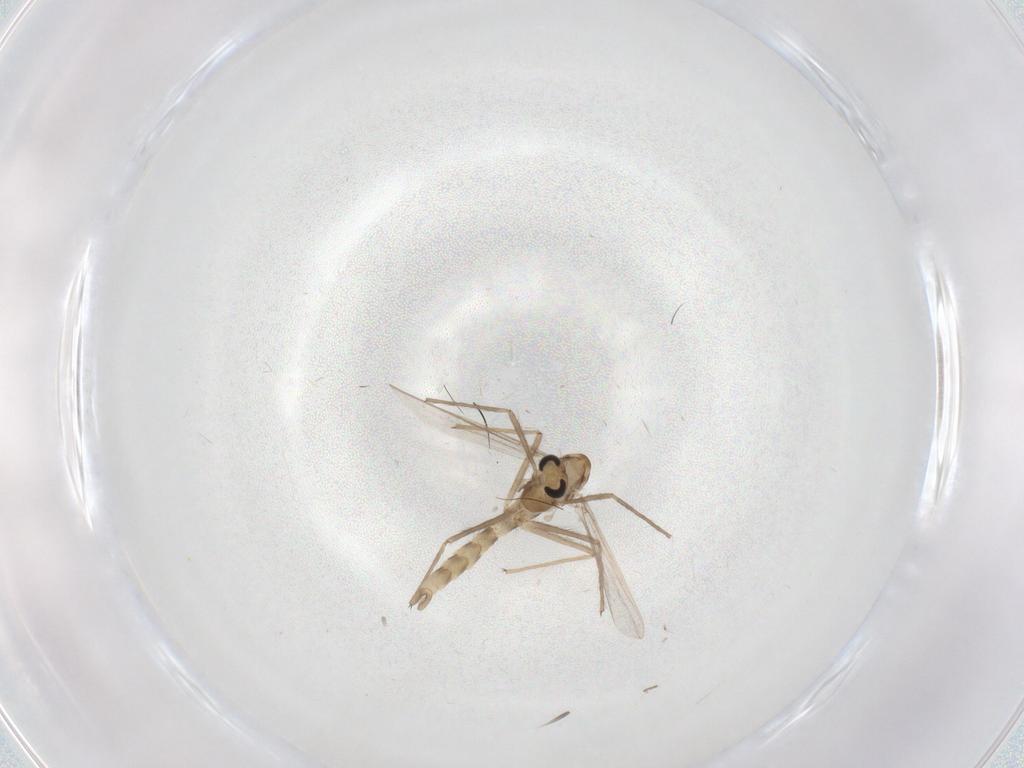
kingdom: Animalia
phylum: Arthropoda
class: Insecta
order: Diptera
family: Chironomidae
